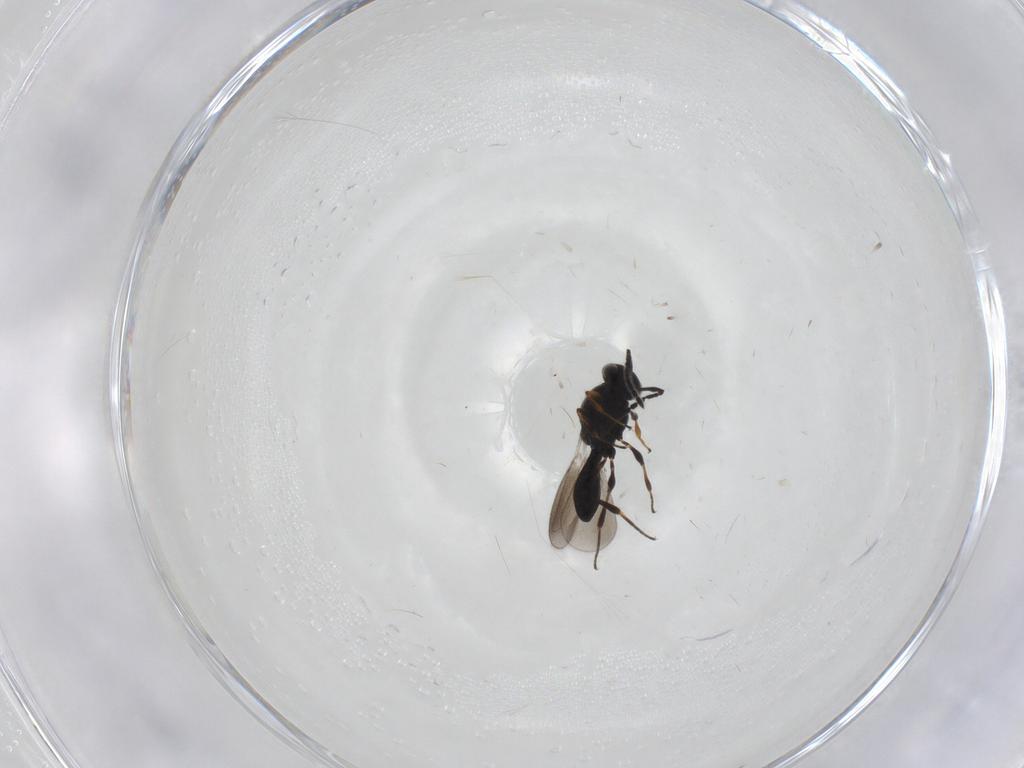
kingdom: Animalia
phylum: Arthropoda
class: Insecta
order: Hymenoptera
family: Platygastridae
